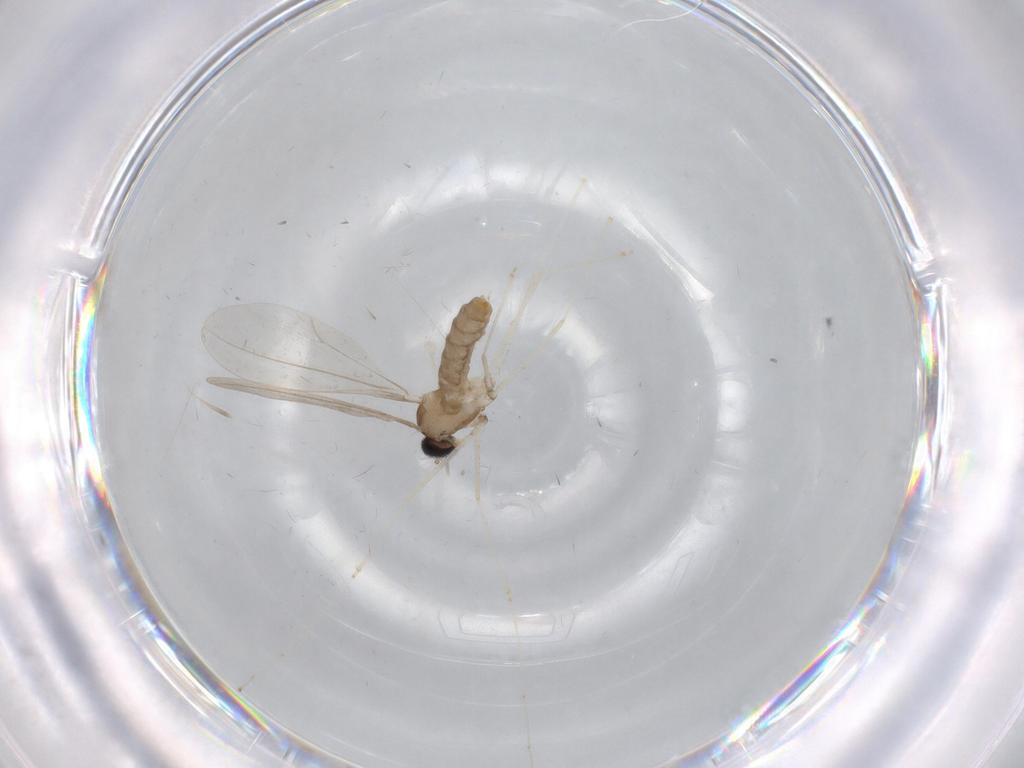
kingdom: Animalia
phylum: Arthropoda
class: Insecta
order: Diptera
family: Cecidomyiidae
